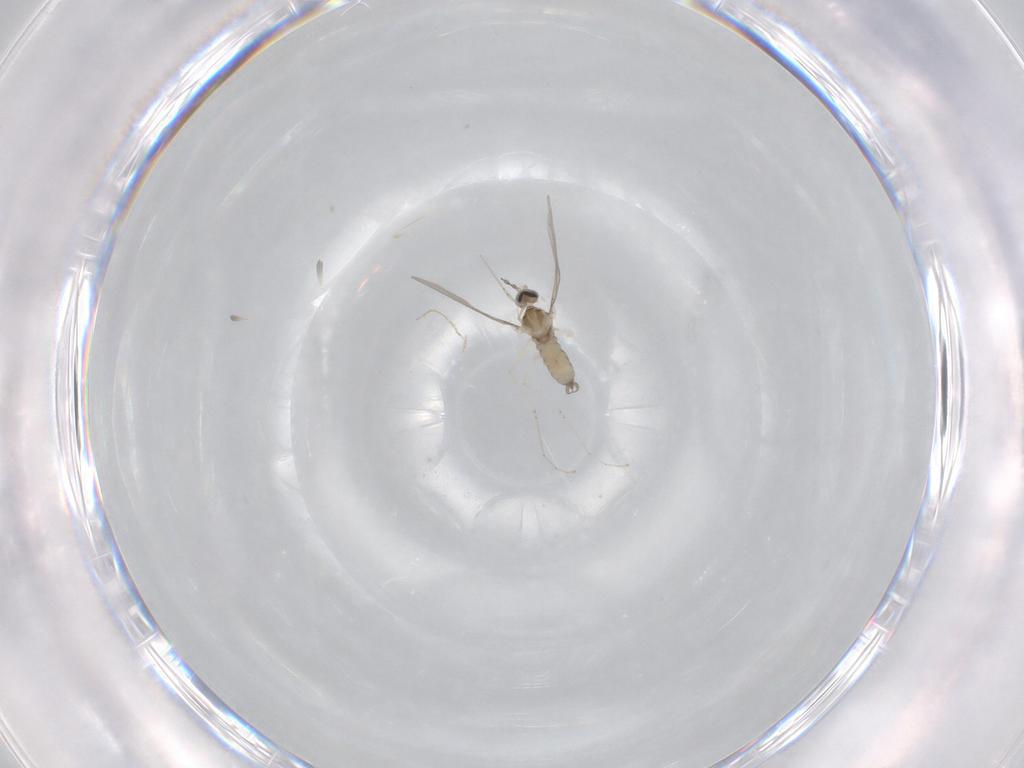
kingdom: Animalia
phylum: Arthropoda
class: Insecta
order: Diptera
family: Cecidomyiidae
